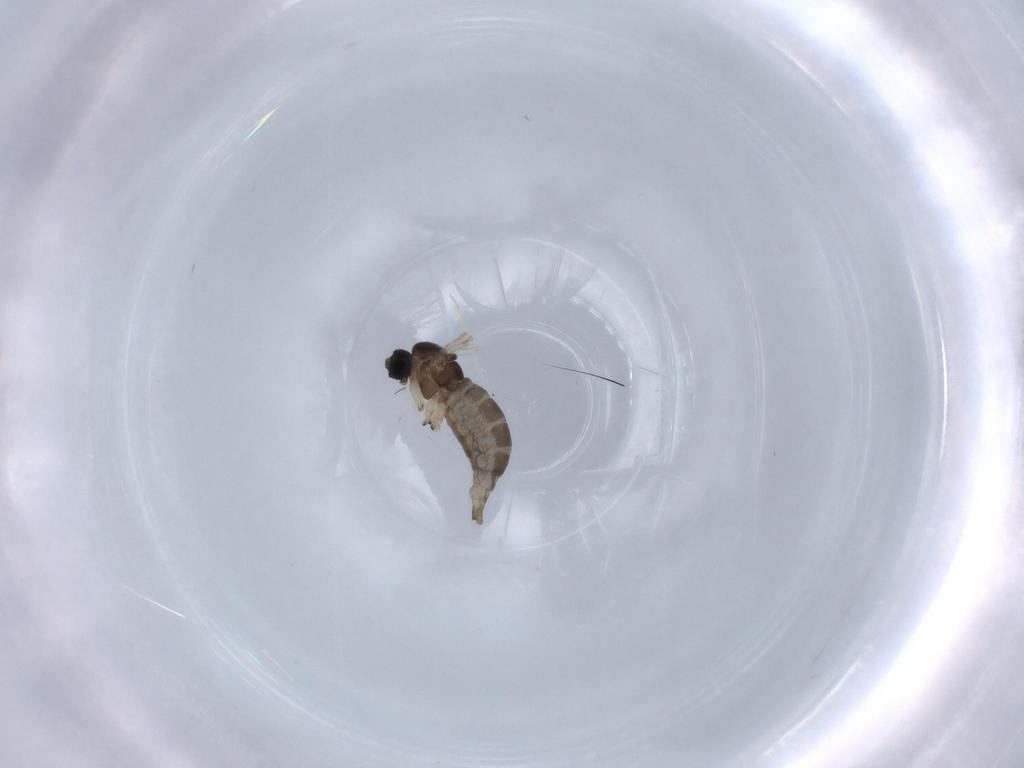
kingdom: Animalia
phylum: Arthropoda
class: Insecta
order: Diptera
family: Sciaridae
